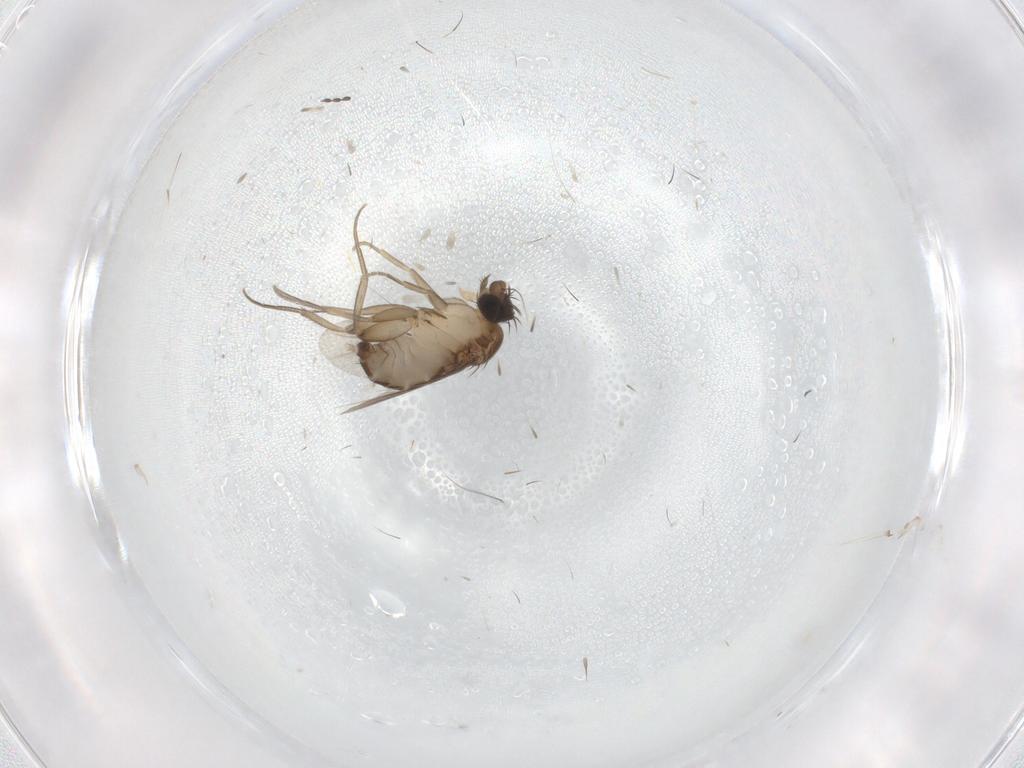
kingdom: Animalia
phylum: Arthropoda
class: Insecta
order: Diptera
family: Phoridae
